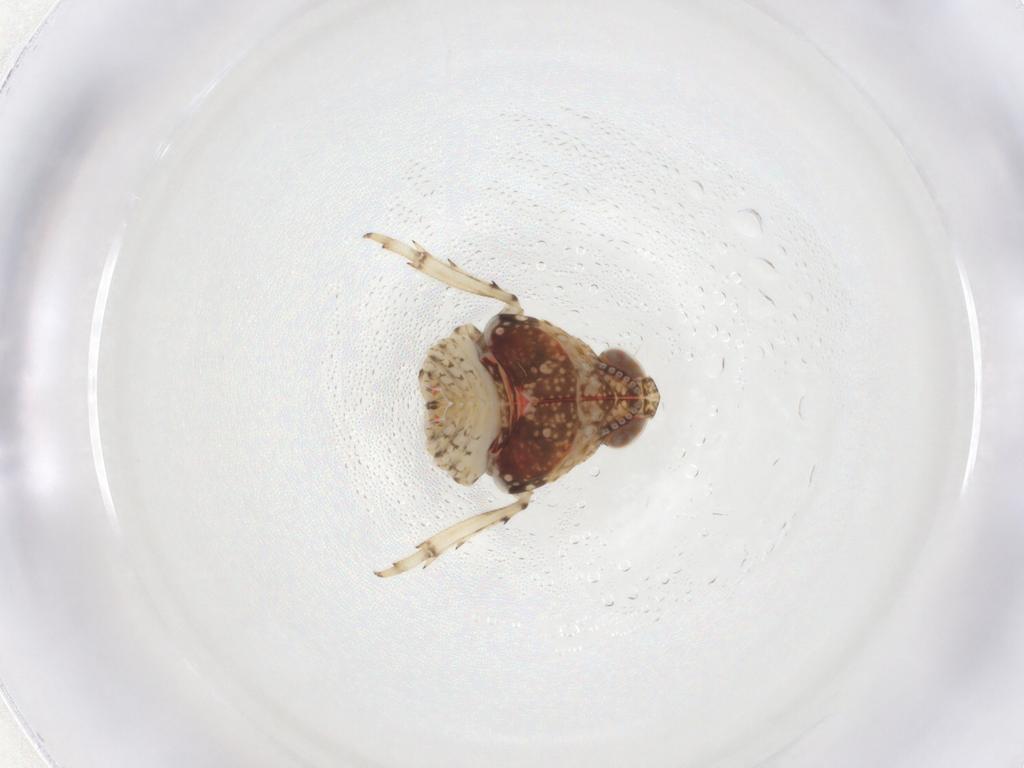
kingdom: Animalia
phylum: Arthropoda
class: Insecta
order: Hemiptera
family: Issidae
